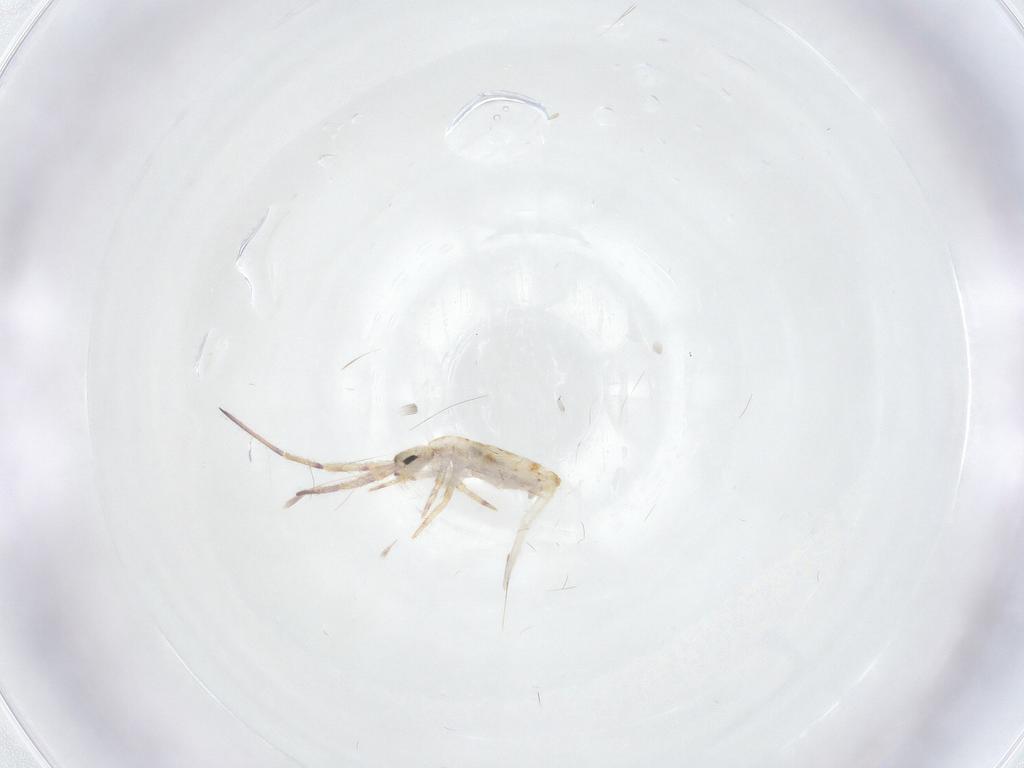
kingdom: Animalia
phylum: Arthropoda
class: Collembola
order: Entomobryomorpha
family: Entomobryidae
